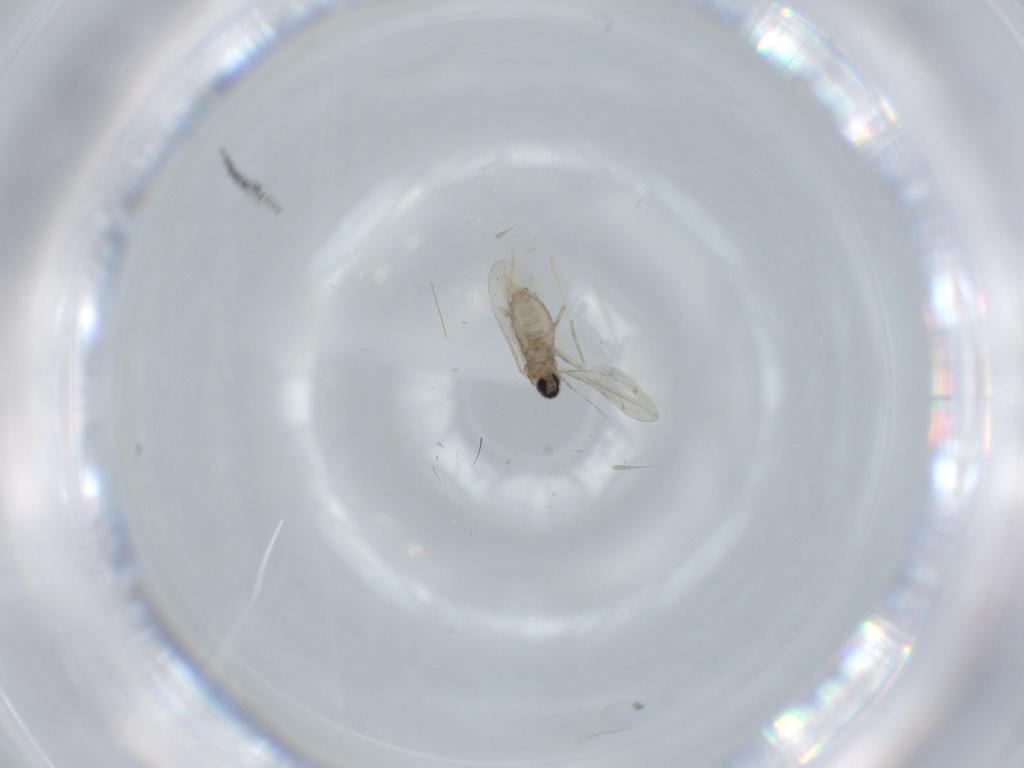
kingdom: Animalia
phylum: Arthropoda
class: Insecta
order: Diptera
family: Cecidomyiidae
